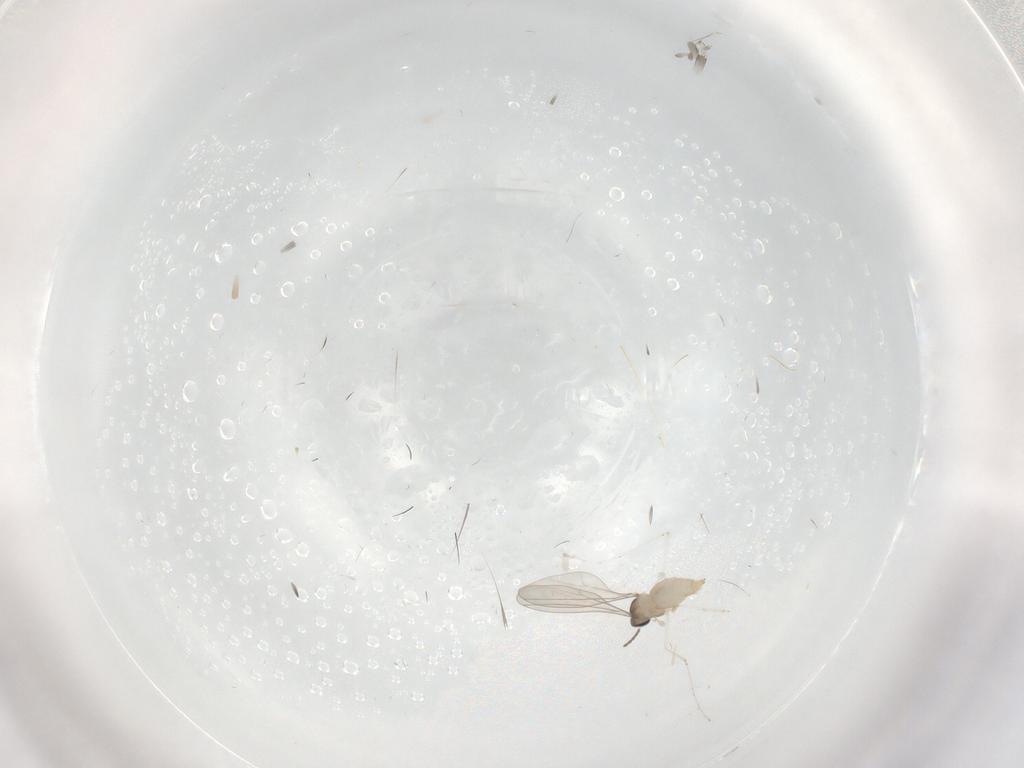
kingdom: Animalia
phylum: Arthropoda
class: Insecta
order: Diptera
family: Cecidomyiidae
